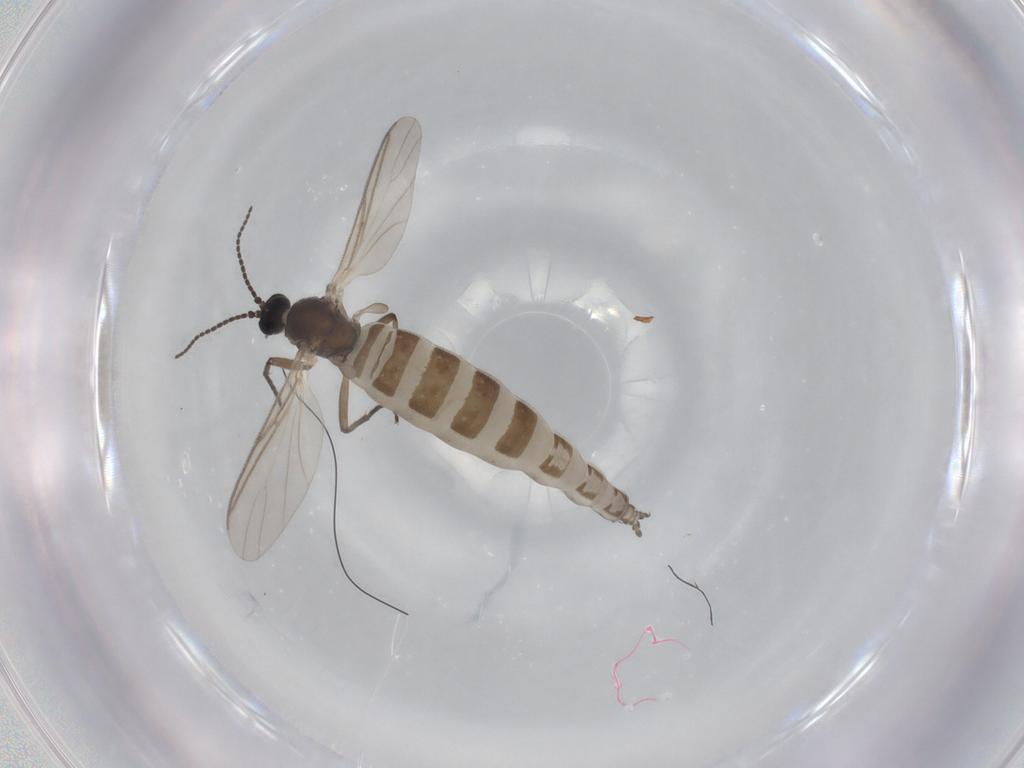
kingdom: Animalia
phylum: Arthropoda
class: Insecta
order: Diptera
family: Sciaridae
